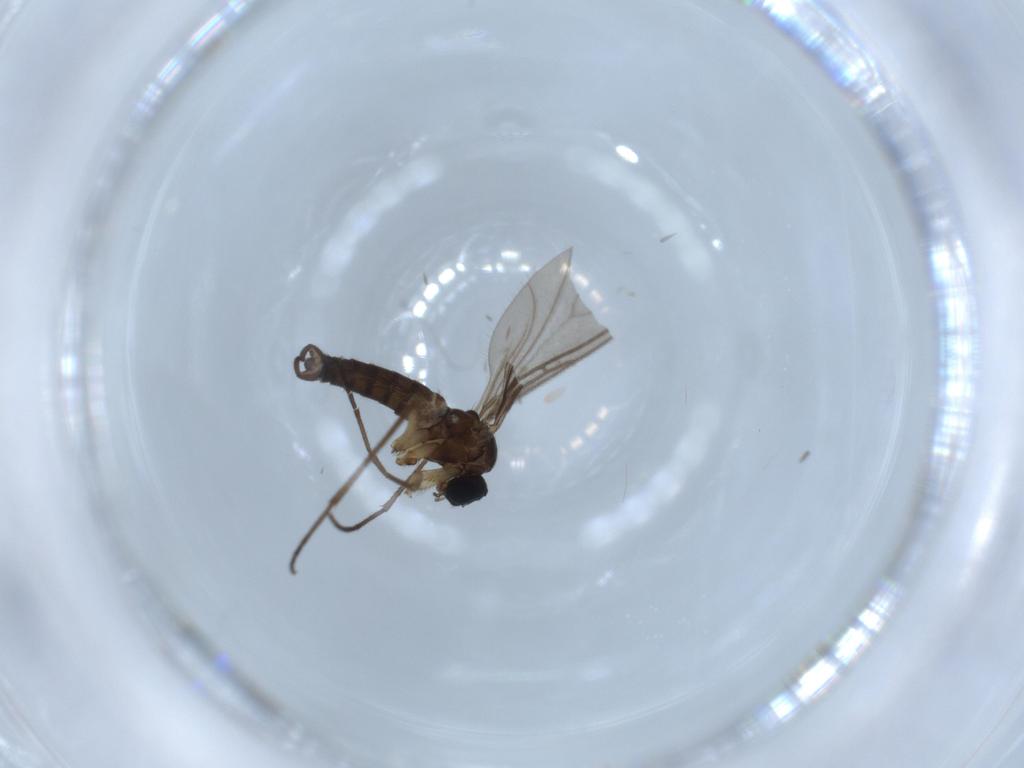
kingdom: Animalia
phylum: Arthropoda
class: Insecta
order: Diptera
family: Sciaridae
